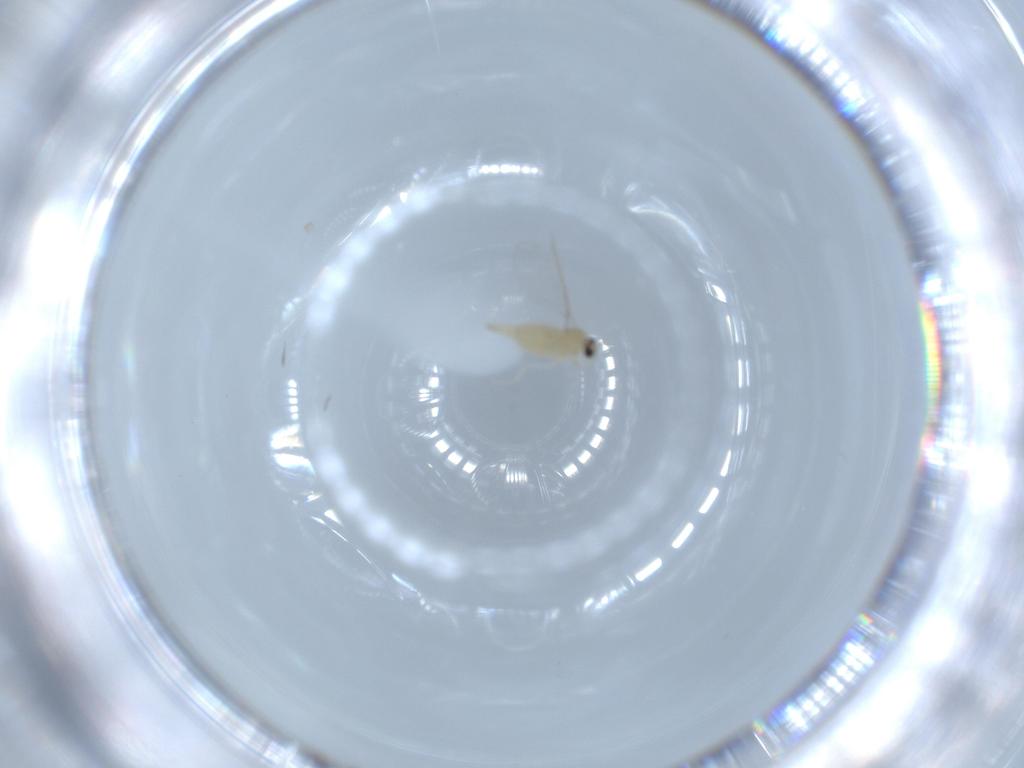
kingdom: Animalia
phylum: Arthropoda
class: Insecta
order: Diptera
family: Cecidomyiidae
